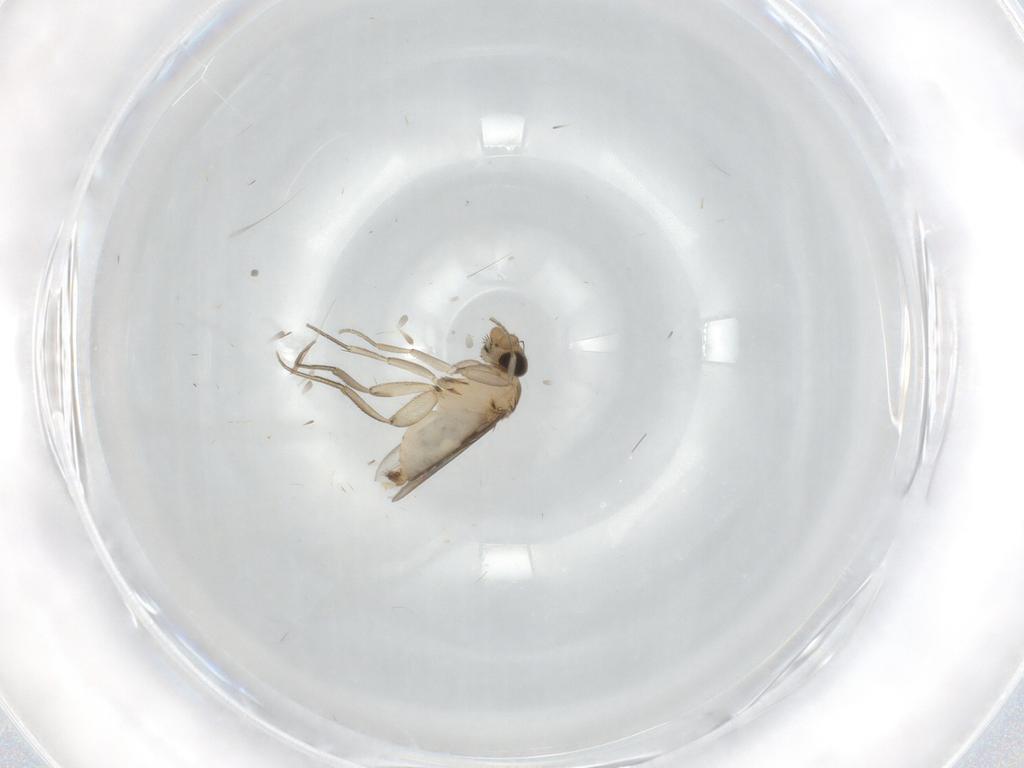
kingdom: Animalia
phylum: Arthropoda
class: Insecta
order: Diptera
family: Phoridae
